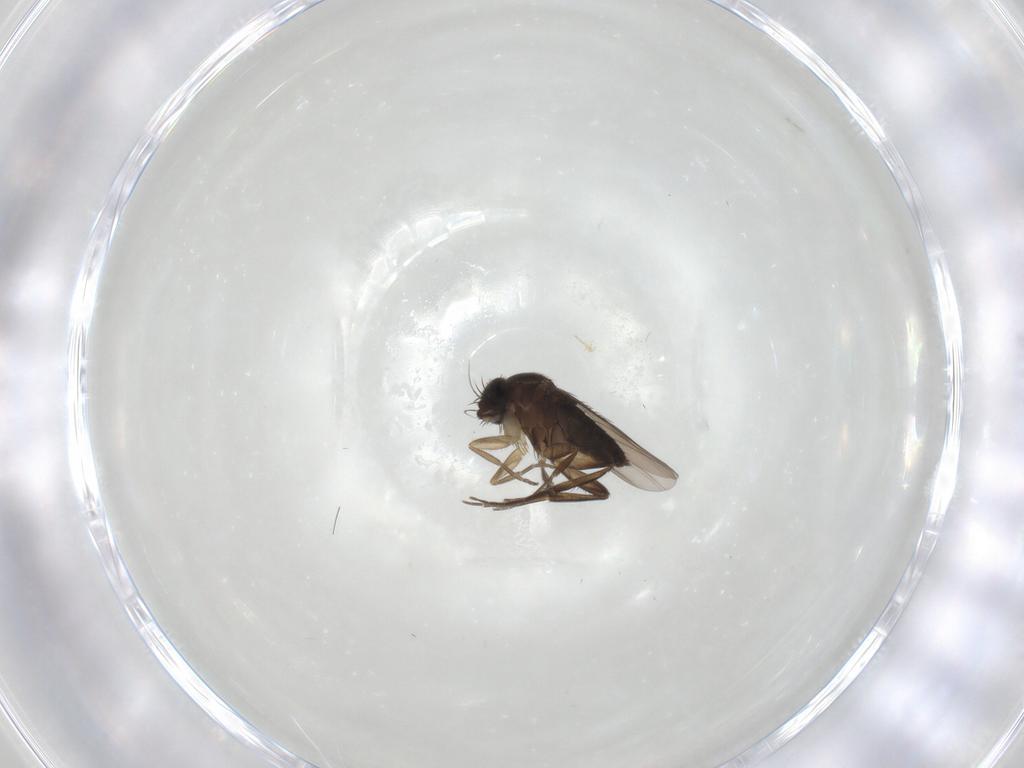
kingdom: Animalia
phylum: Arthropoda
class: Insecta
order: Diptera
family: Phoridae
